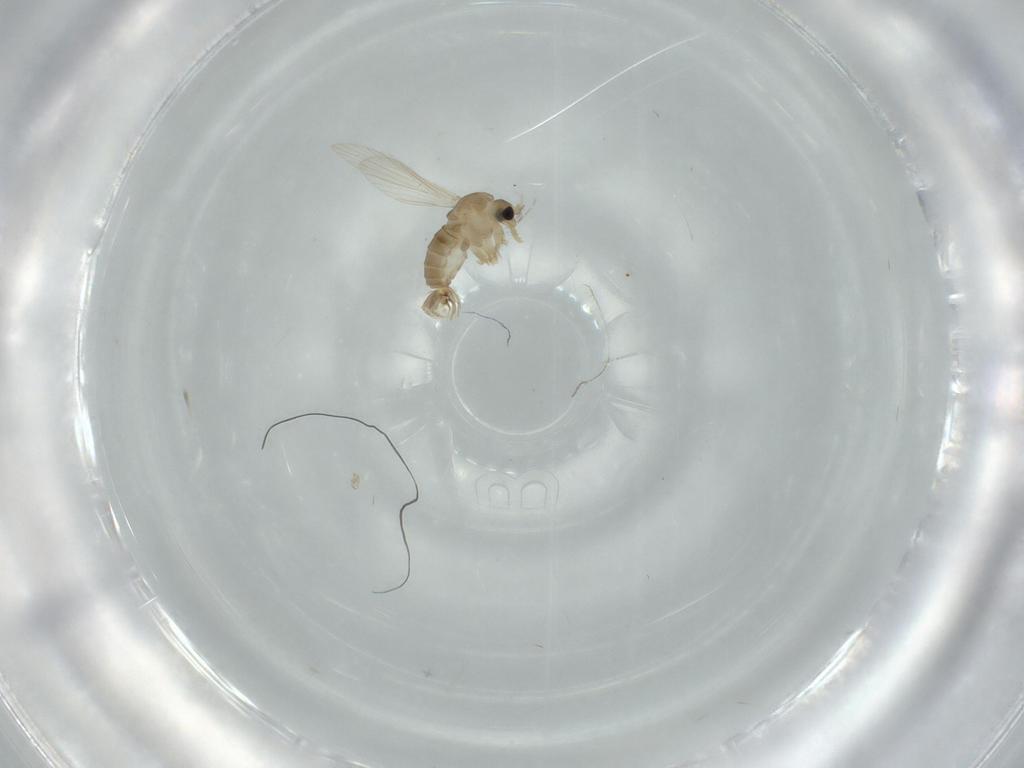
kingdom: Animalia
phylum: Arthropoda
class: Insecta
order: Diptera
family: Psychodidae
